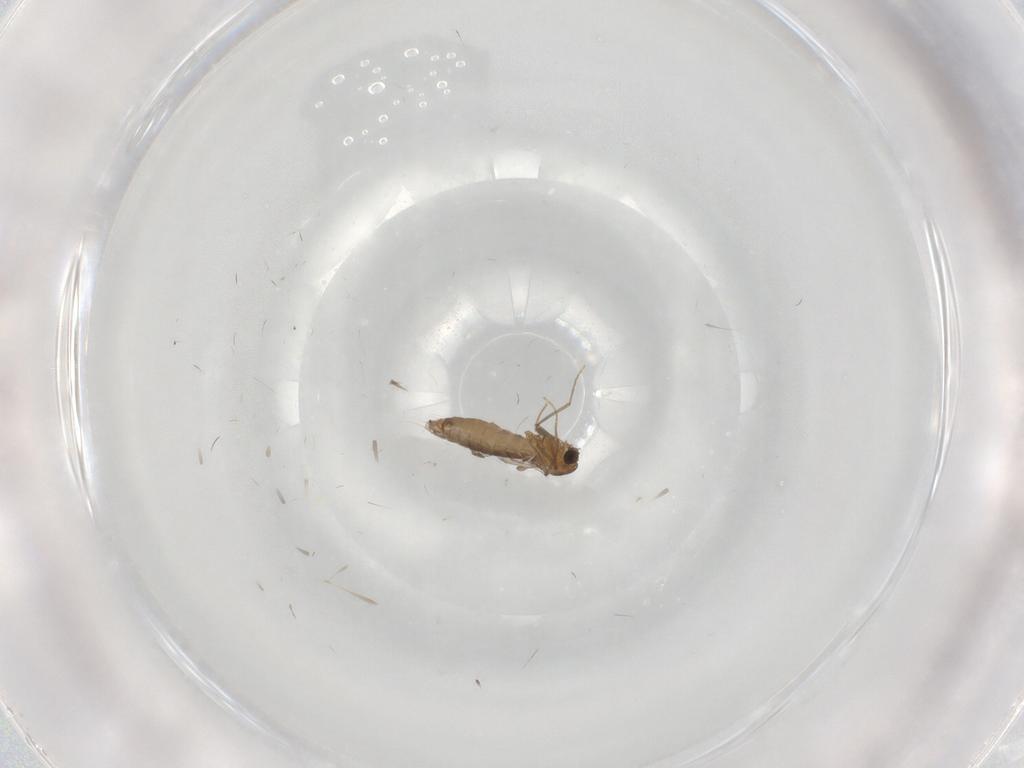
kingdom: Animalia
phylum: Arthropoda
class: Insecta
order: Diptera
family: Chironomidae
